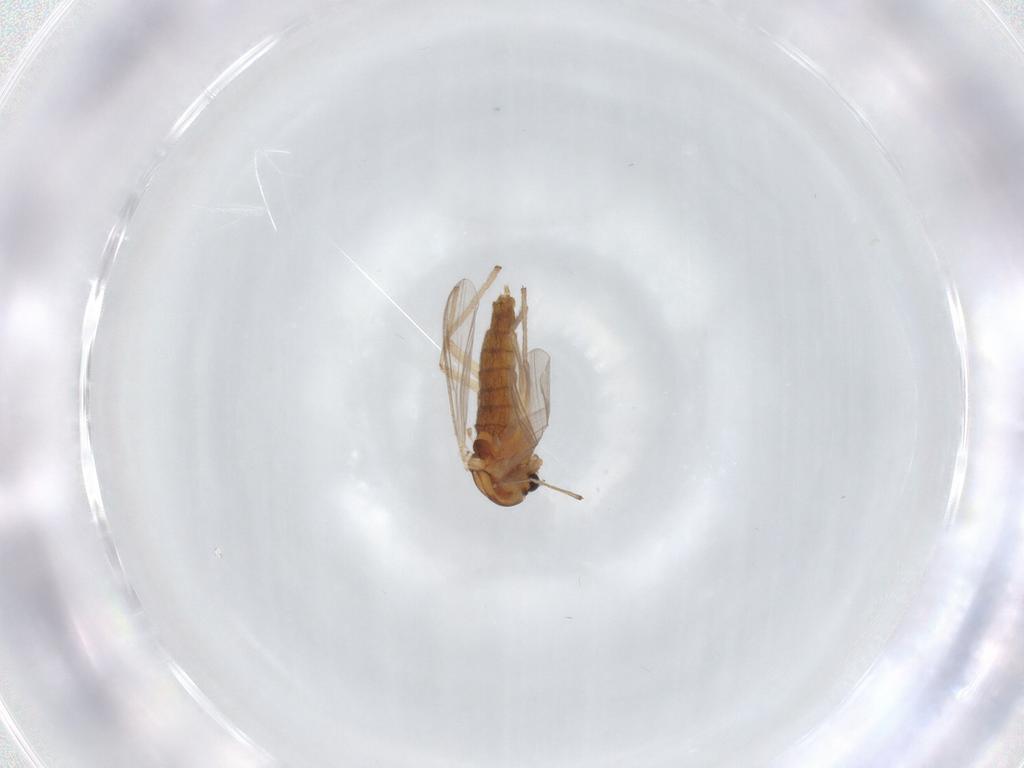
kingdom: Animalia
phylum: Arthropoda
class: Insecta
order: Diptera
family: Chironomidae
